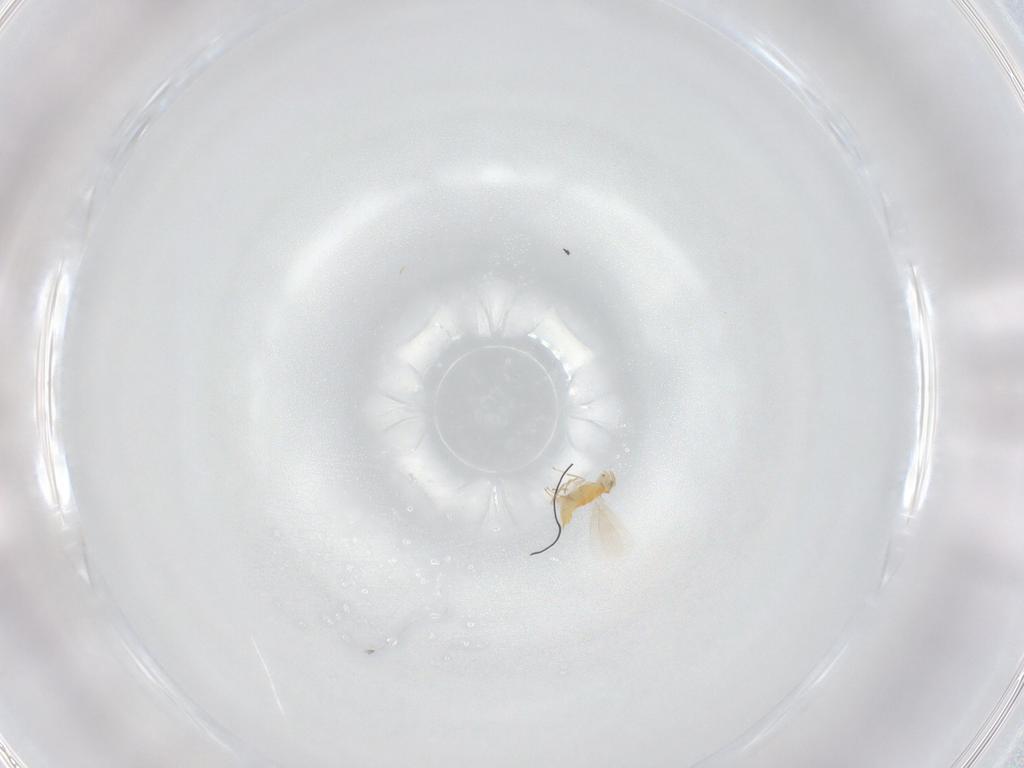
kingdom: Animalia
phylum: Arthropoda
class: Insecta
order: Hymenoptera
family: Aphelinidae
